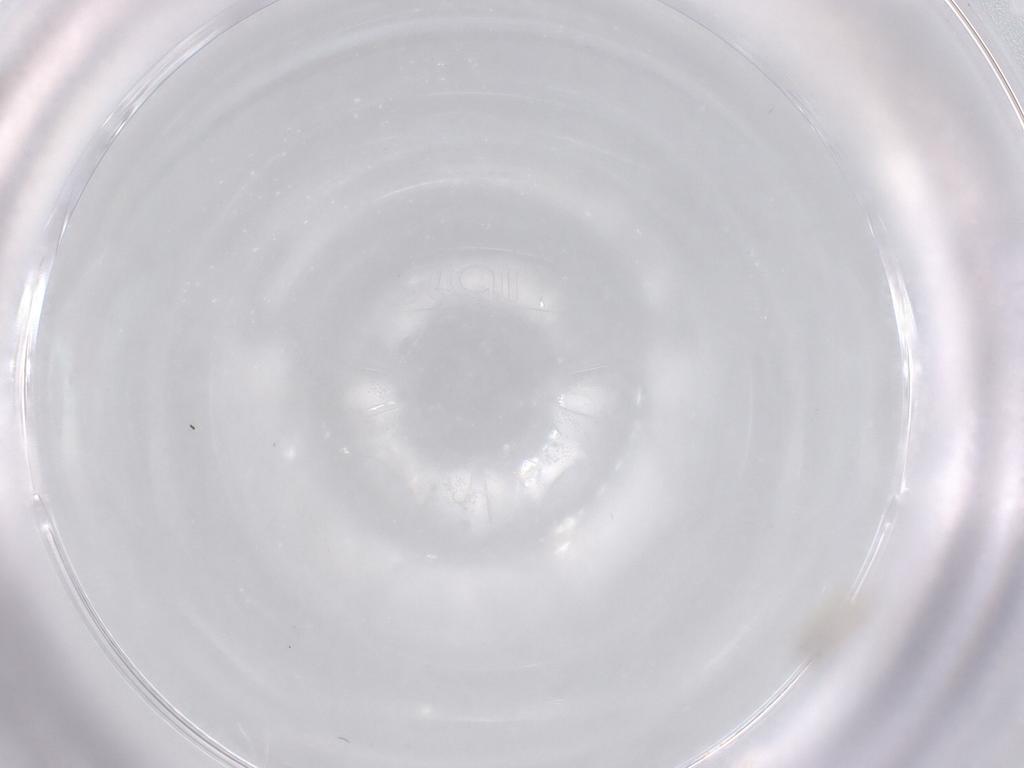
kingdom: Animalia
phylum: Arthropoda
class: Insecta
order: Diptera
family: Chironomidae
